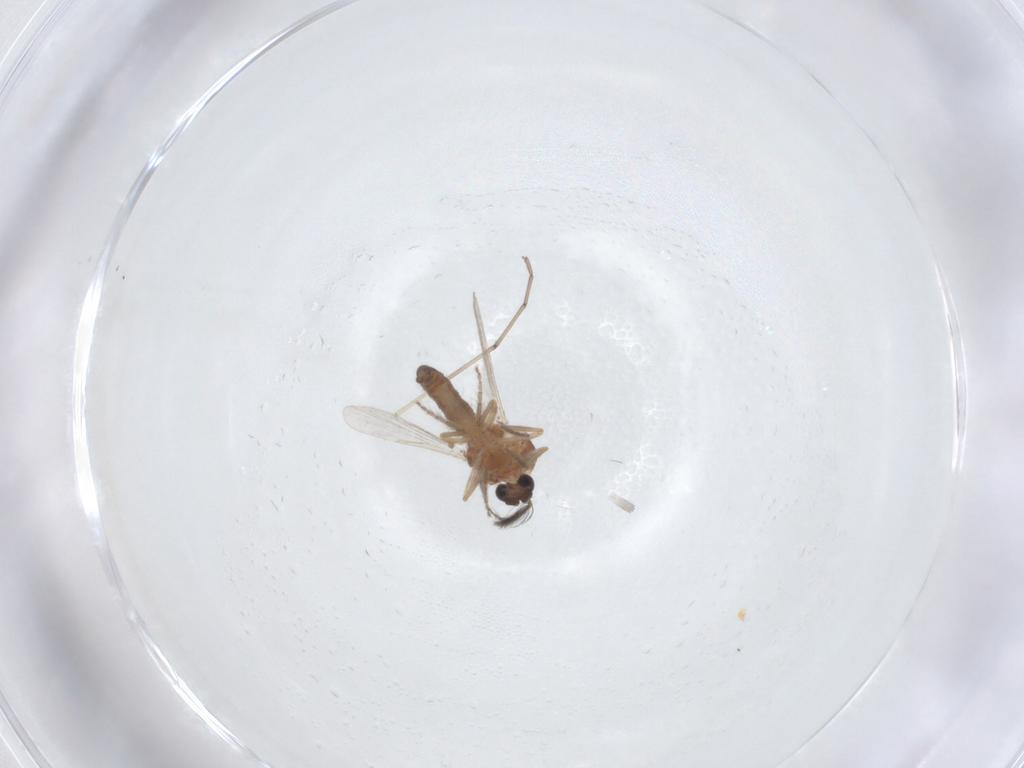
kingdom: Animalia
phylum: Arthropoda
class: Insecta
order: Diptera
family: Ceratopogonidae
